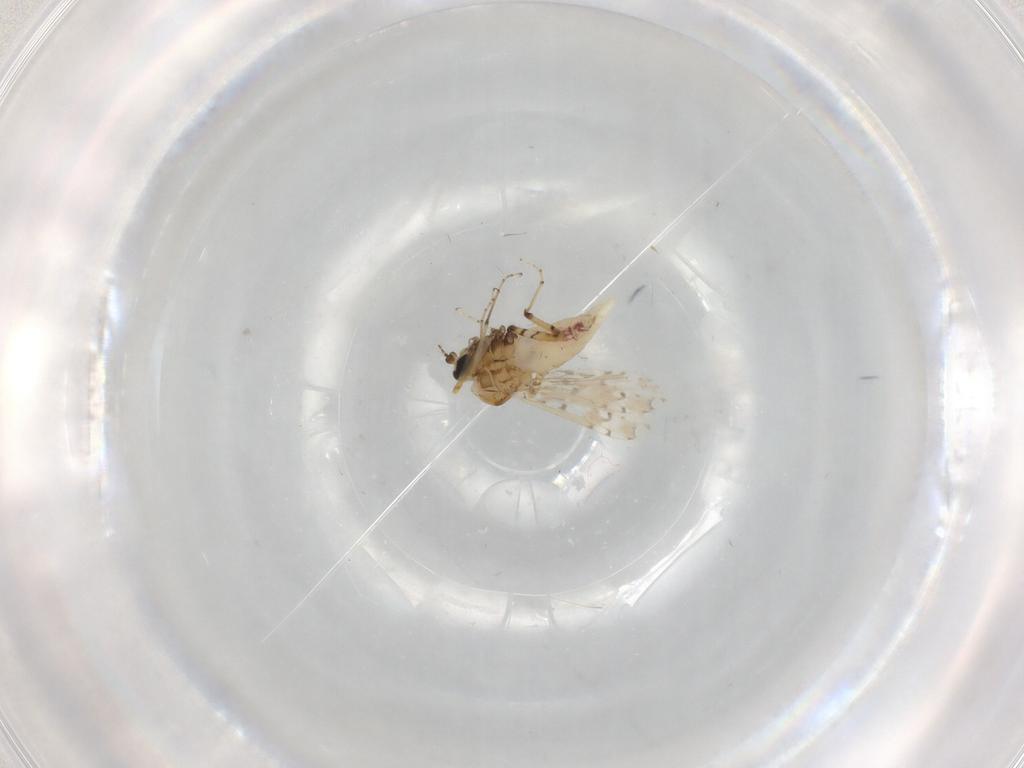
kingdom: Animalia
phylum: Arthropoda
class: Insecta
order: Diptera
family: Ceratopogonidae
